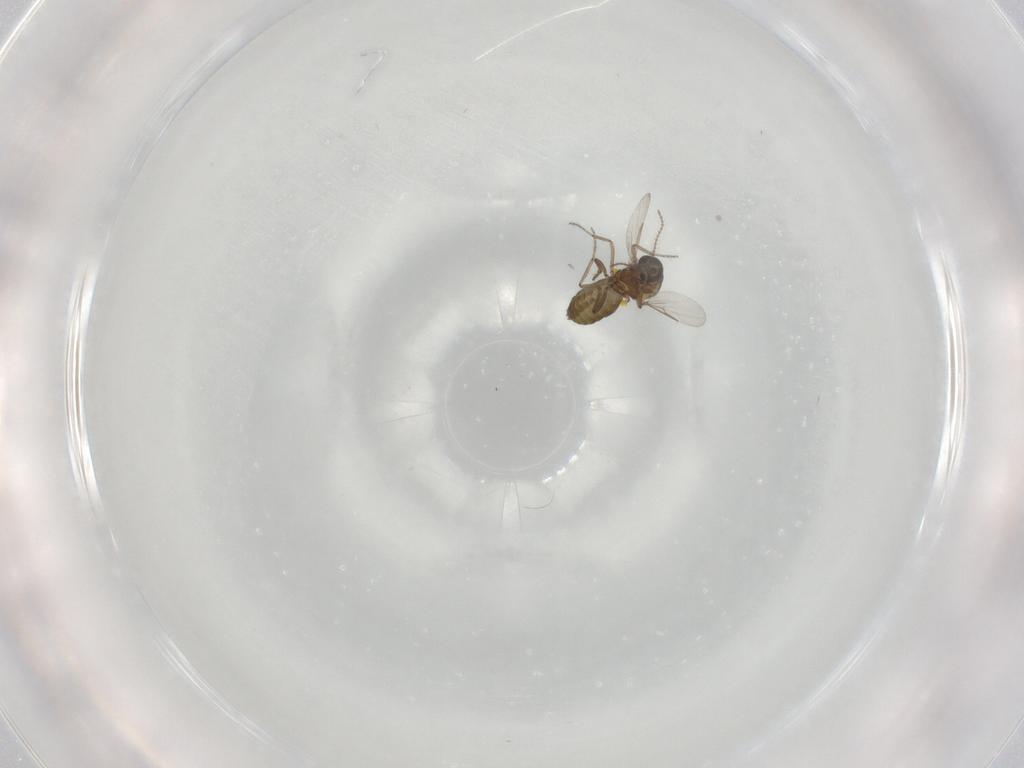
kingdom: Animalia
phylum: Arthropoda
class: Insecta
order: Diptera
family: Ceratopogonidae
